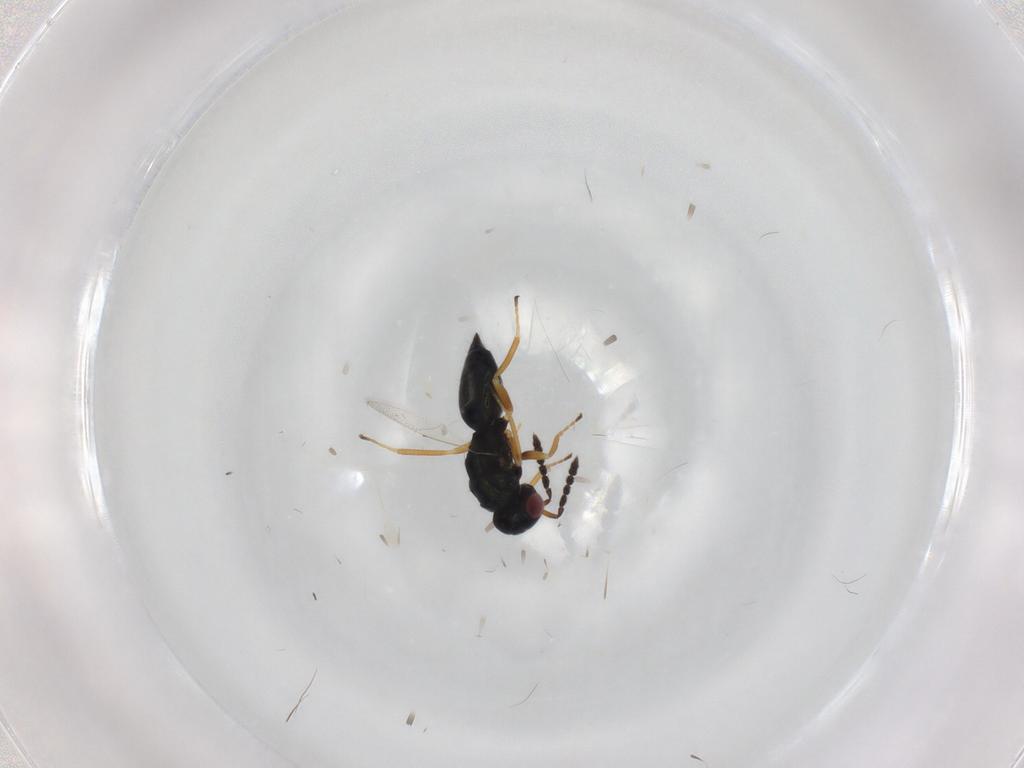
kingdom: Animalia
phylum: Arthropoda
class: Insecta
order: Hymenoptera
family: Eulophidae
